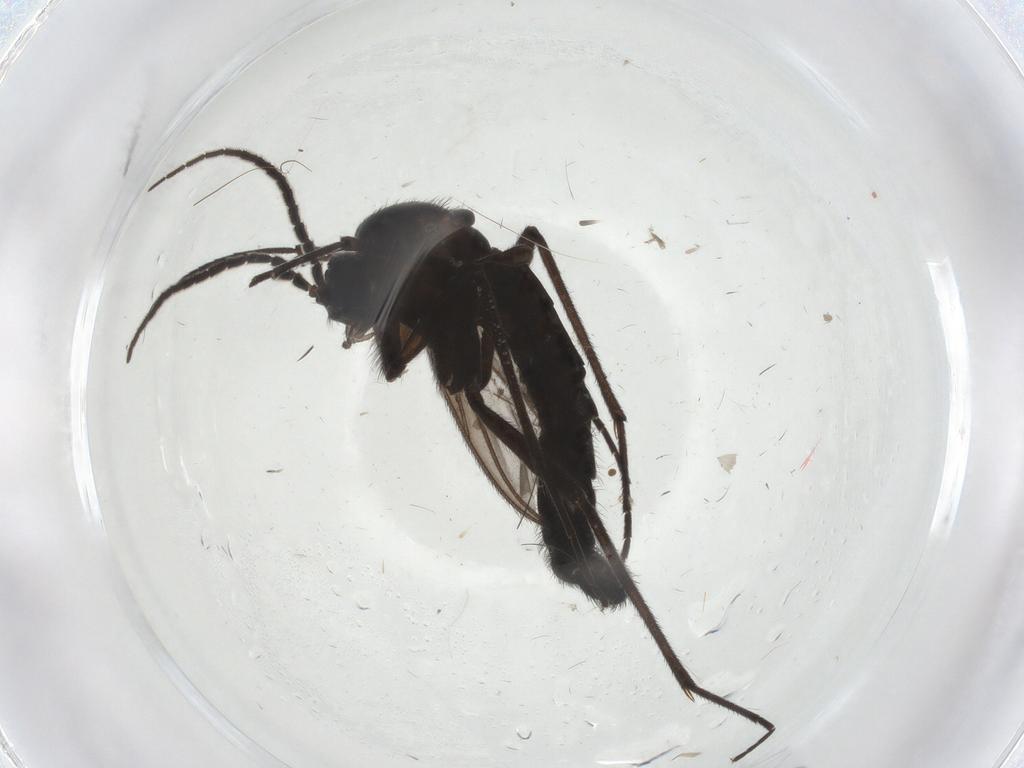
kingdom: Animalia
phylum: Arthropoda
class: Insecta
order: Diptera
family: Tipulidae
